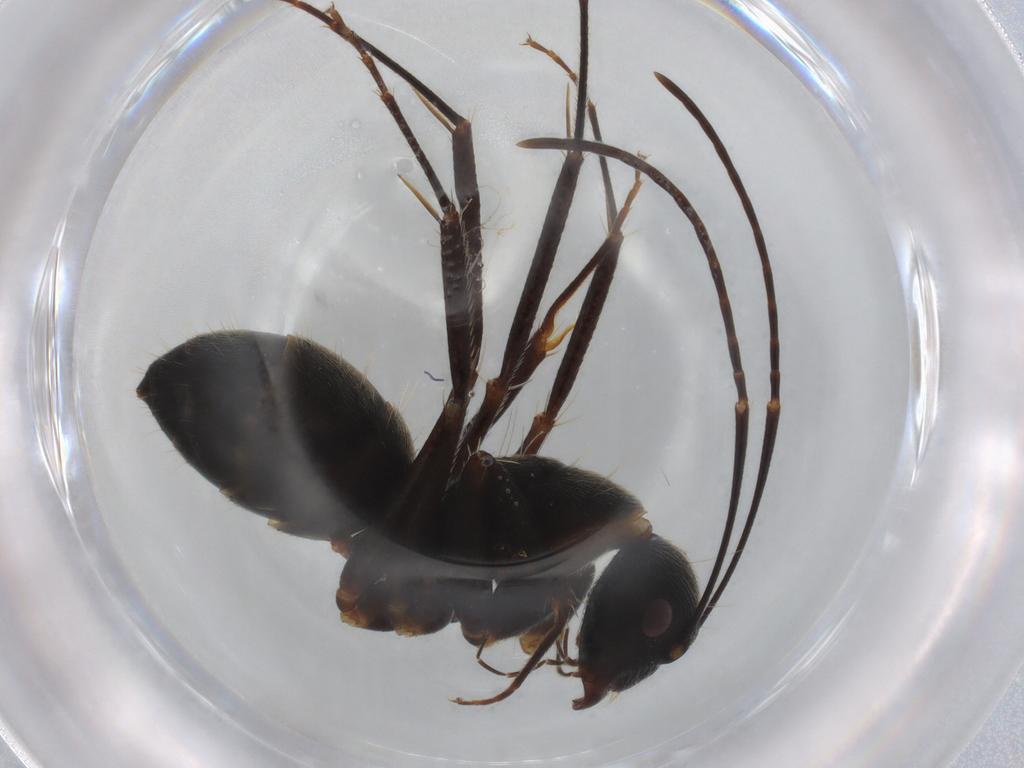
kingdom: Animalia
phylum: Arthropoda
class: Insecta
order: Hymenoptera
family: Formicidae
